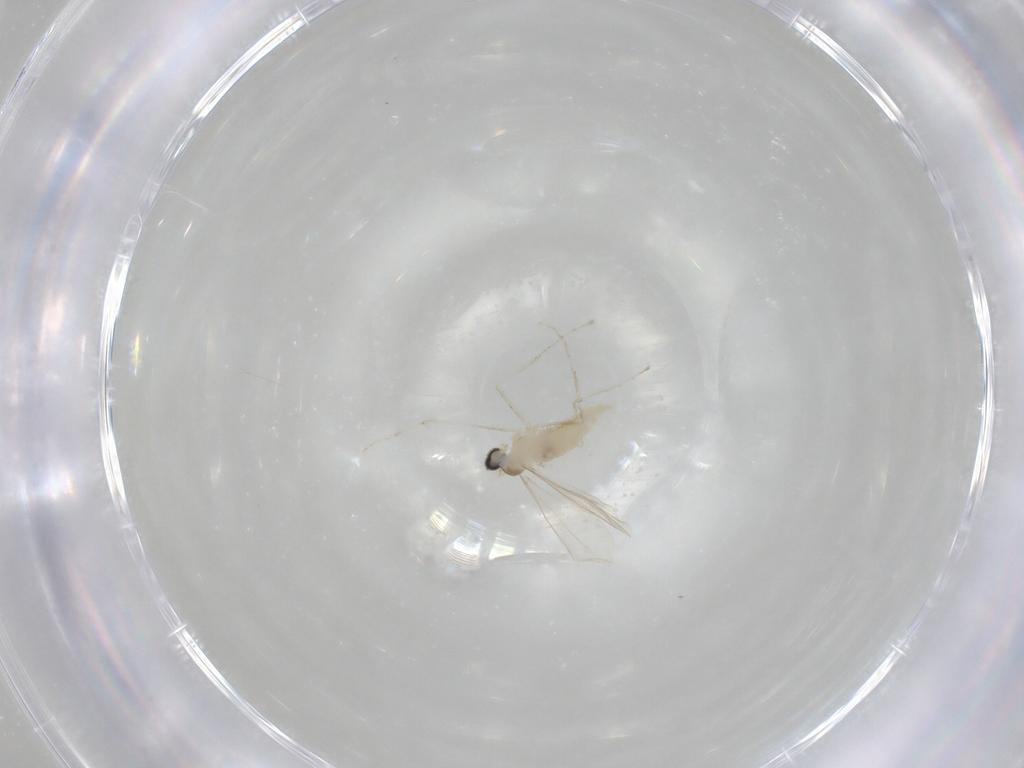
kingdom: Animalia
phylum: Arthropoda
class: Insecta
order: Diptera
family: Cecidomyiidae
